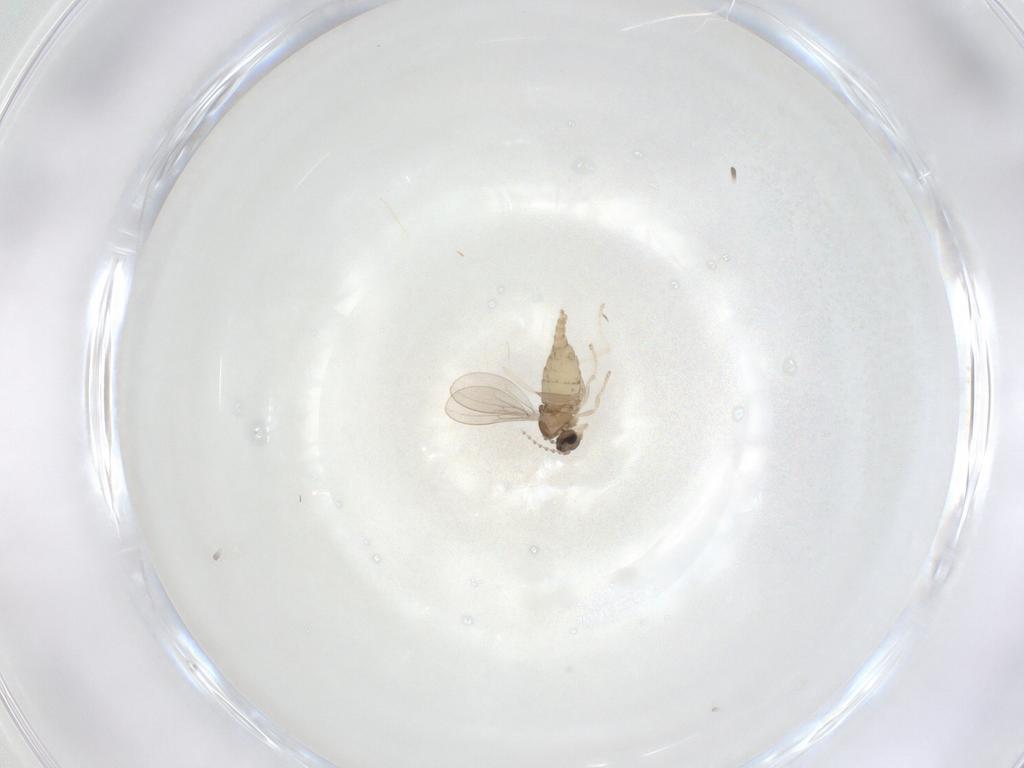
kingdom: Animalia
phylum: Arthropoda
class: Insecta
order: Diptera
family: Cecidomyiidae
